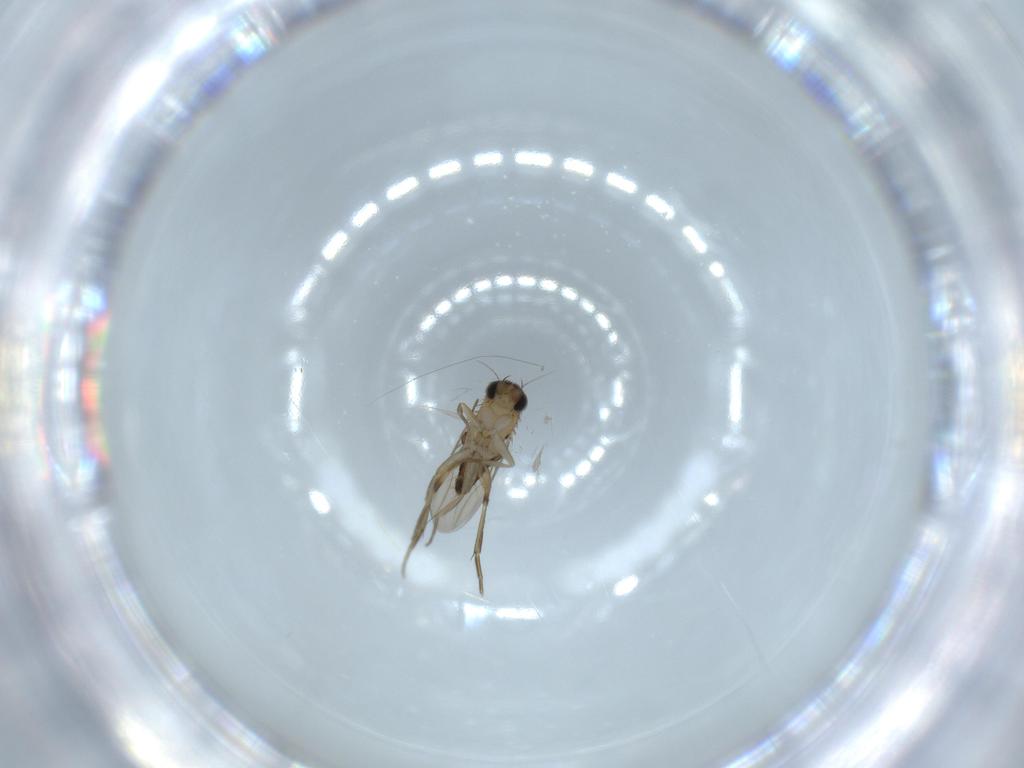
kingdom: Animalia
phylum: Arthropoda
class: Insecta
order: Diptera
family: Phoridae
